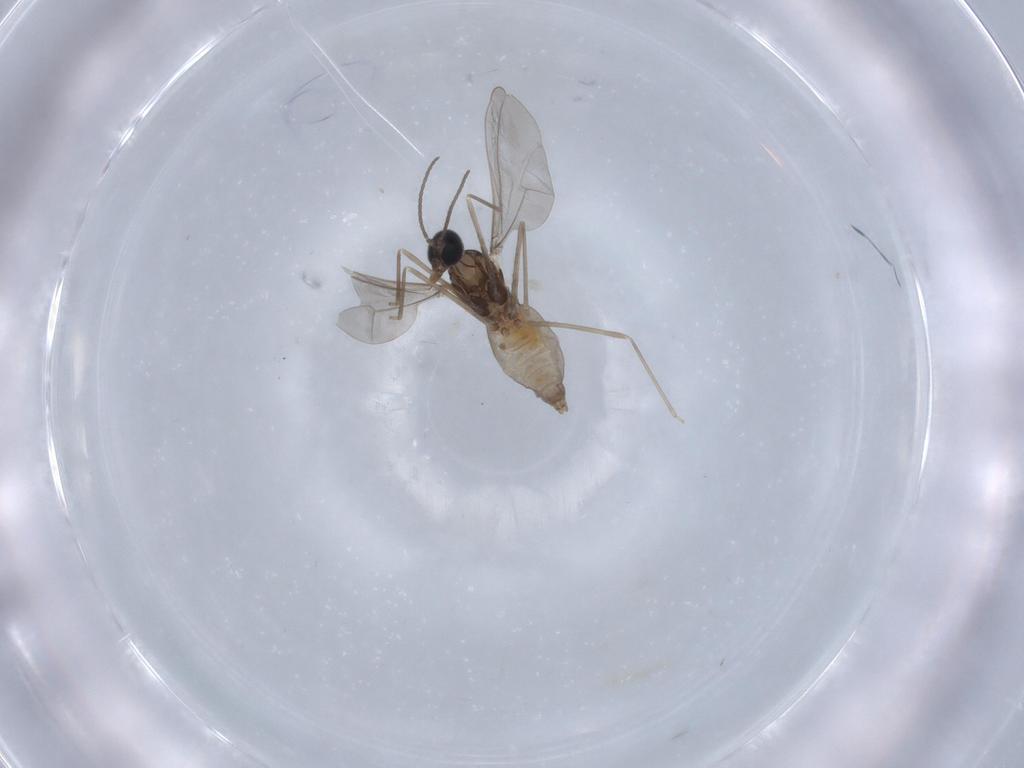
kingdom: Animalia
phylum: Arthropoda
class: Insecta
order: Diptera
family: Cecidomyiidae
